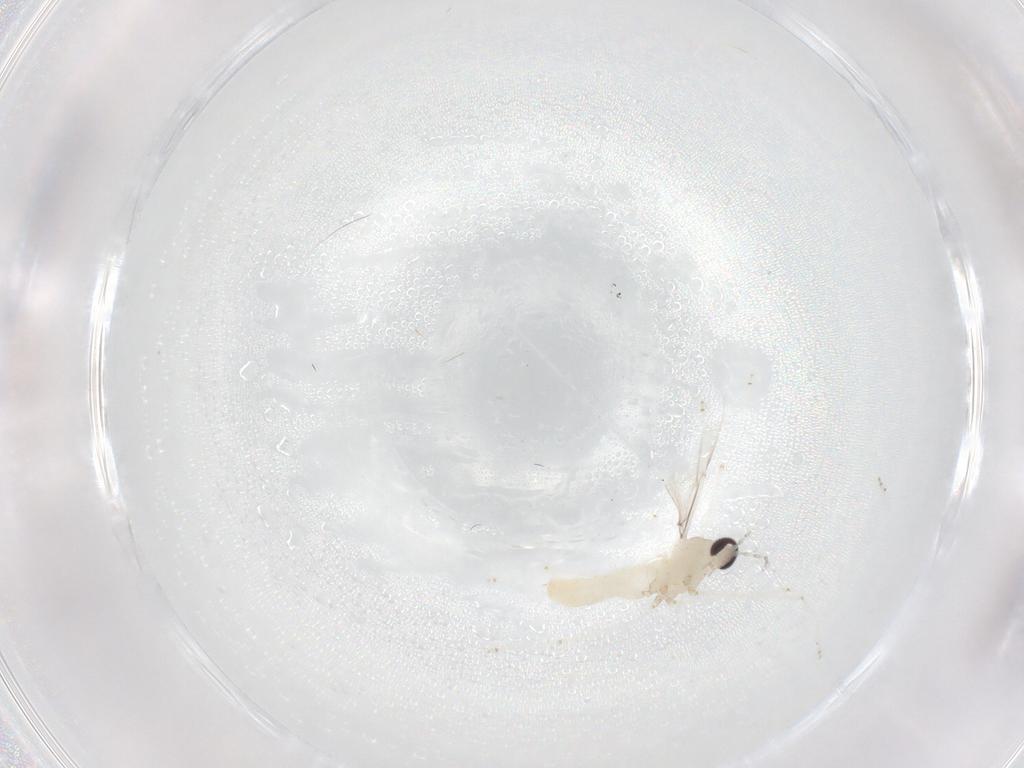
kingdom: Animalia
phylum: Arthropoda
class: Insecta
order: Diptera
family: Cecidomyiidae
